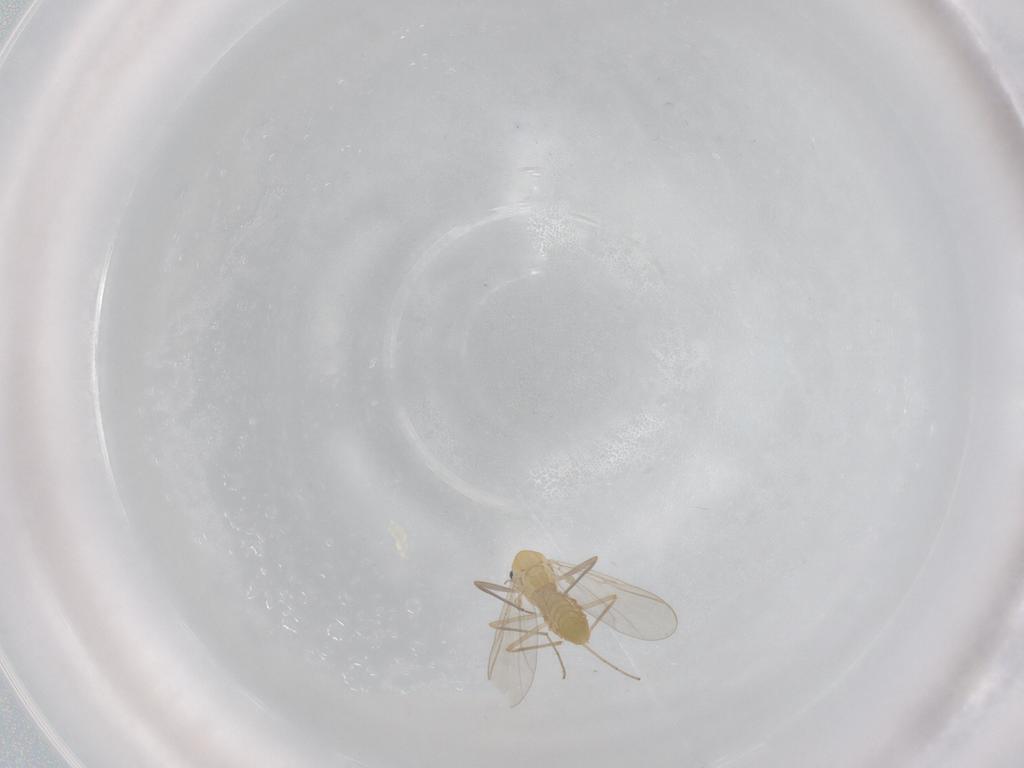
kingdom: Animalia
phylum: Arthropoda
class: Insecta
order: Diptera
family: Chironomidae
